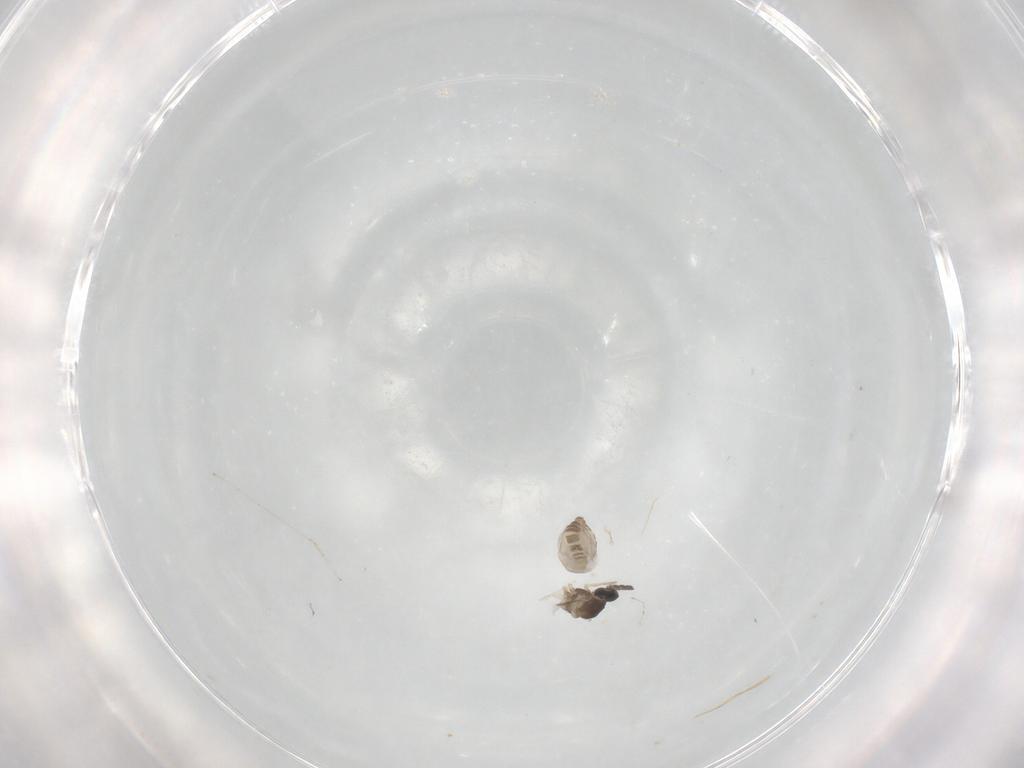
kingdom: Animalia
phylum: Arthropoda
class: Insecta
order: Diptera
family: Cecidomyiidae
